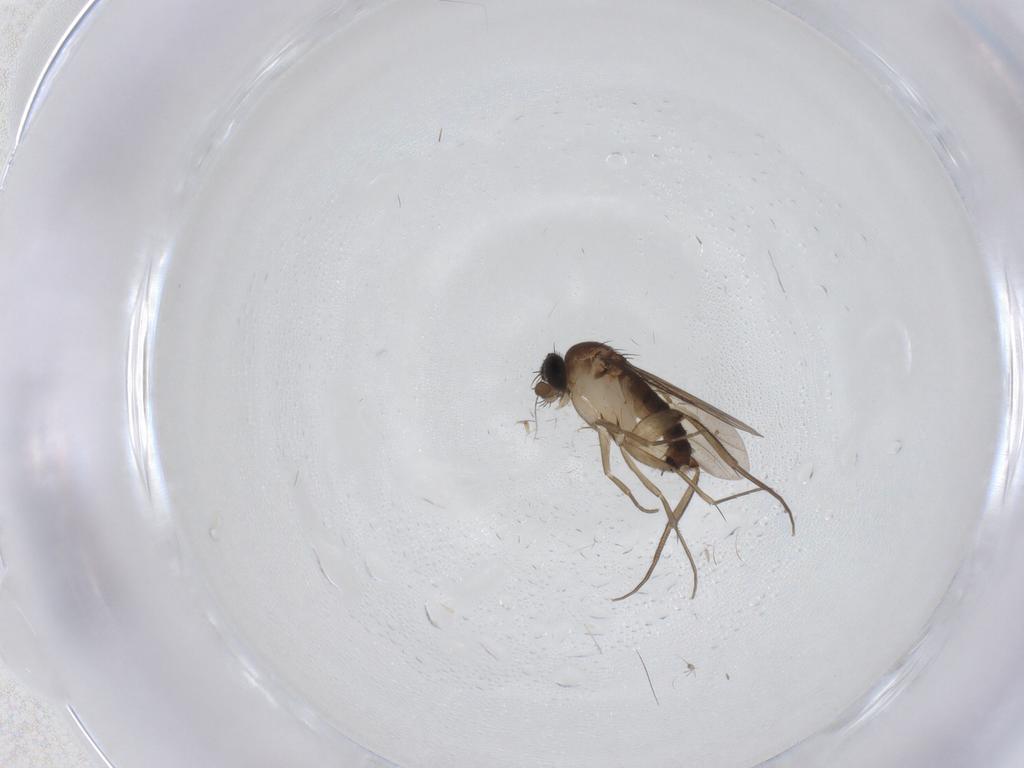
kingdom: Animalia
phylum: Arthropoda
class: Insecta
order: Diptera
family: Phoridae
